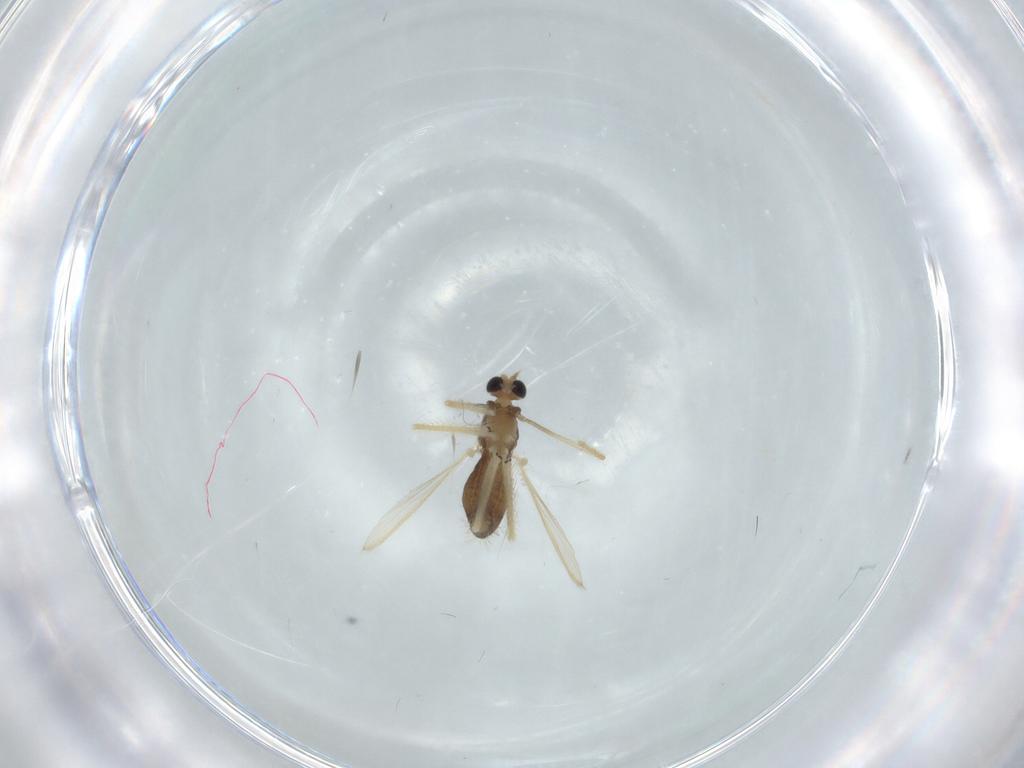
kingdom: Animalia
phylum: Arthropoda
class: Insecta
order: Diptera
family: Chironomidae
